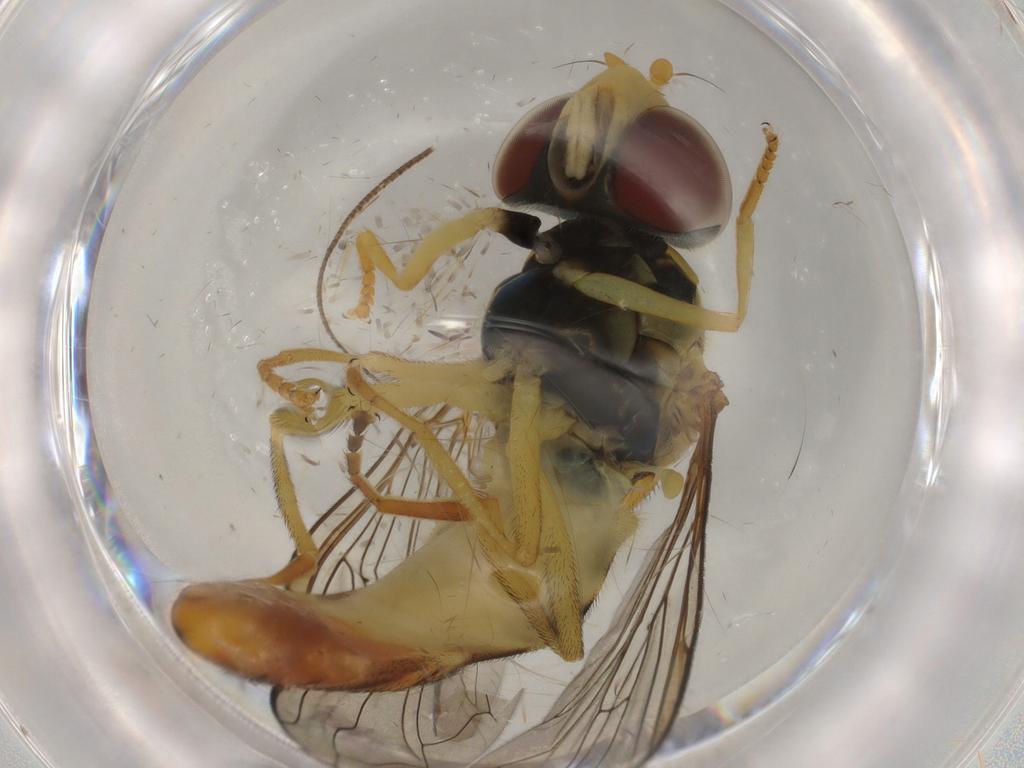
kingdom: Animalia
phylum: Arthropoda
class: Insecta
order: Diptera
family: Syrphidae
